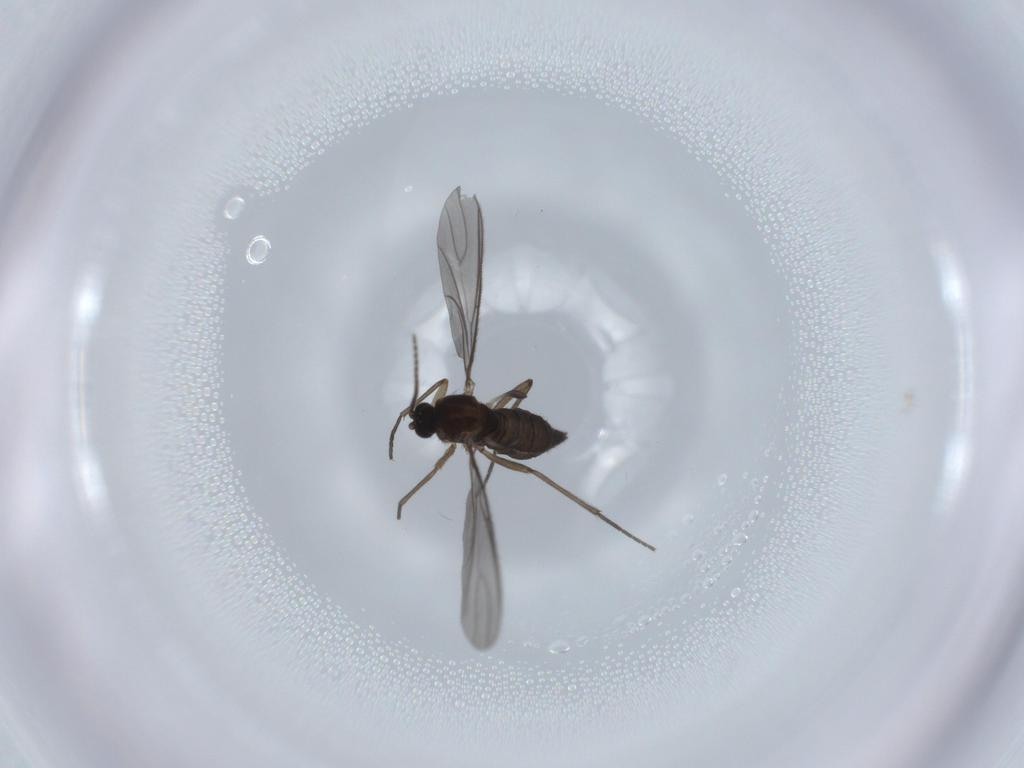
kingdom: Animalia
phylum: Arthropoda
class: Insecta
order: Diptera
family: Sciaridae
